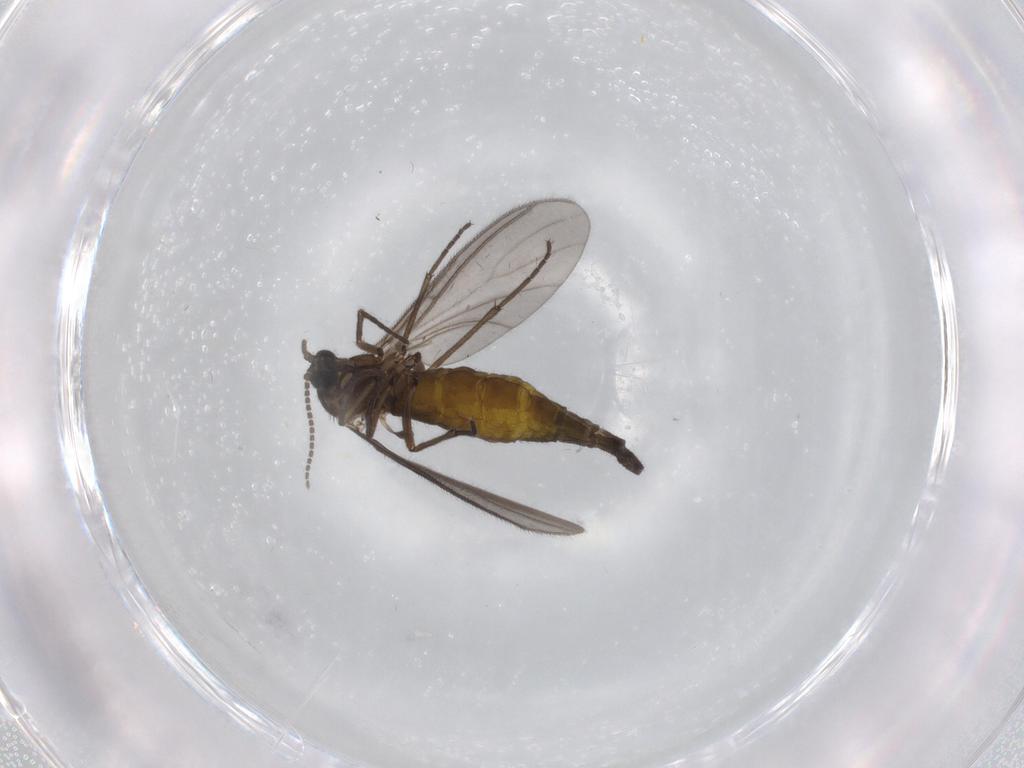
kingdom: Animalia
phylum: Arthropoda
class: Insecta
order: Diptera
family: Sciaridae
